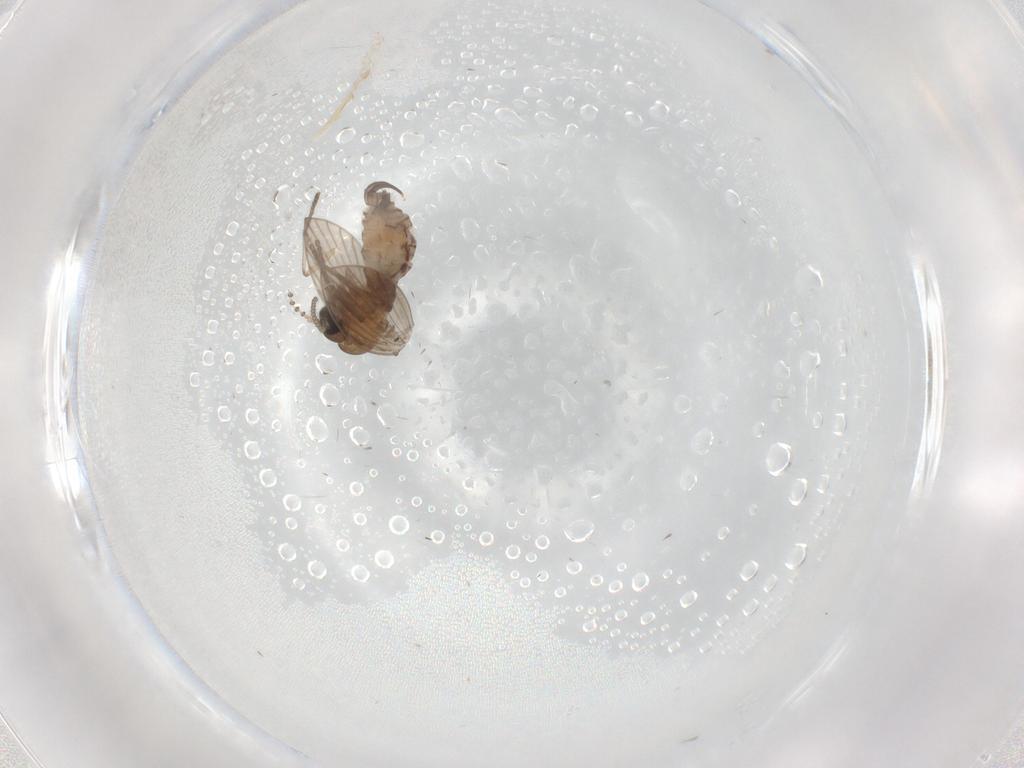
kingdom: Animalia
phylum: Arthropoda
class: Insecta
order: Diptera
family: Psychodidae
